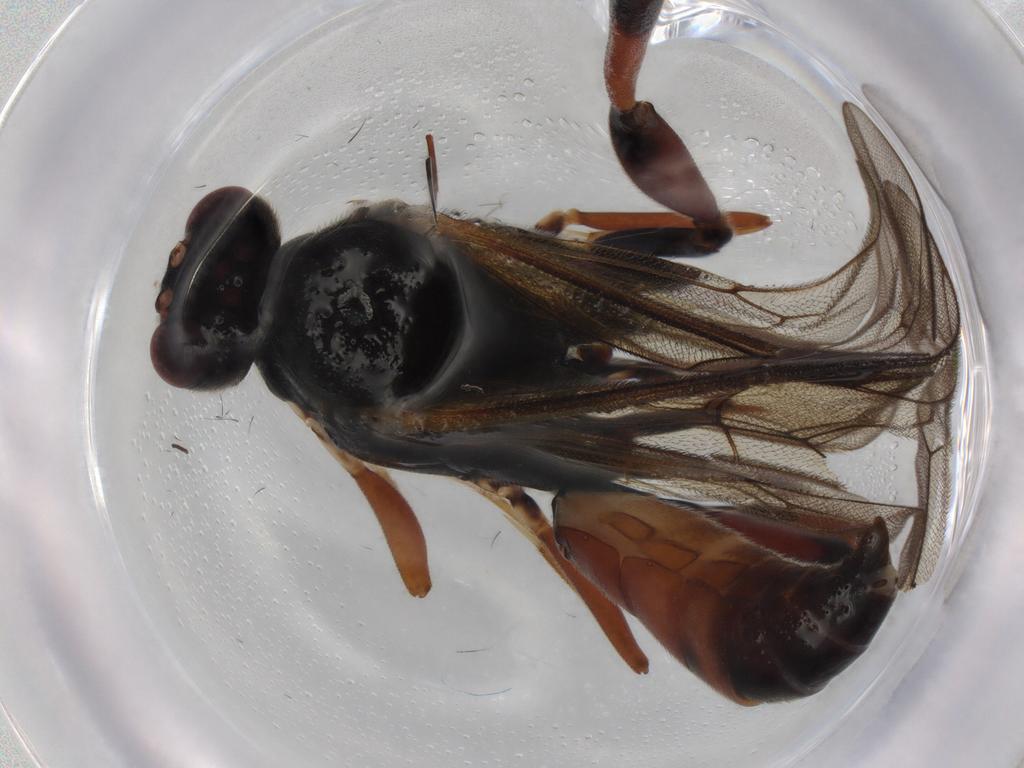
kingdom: Animalia
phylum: Arthropoda
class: Insecta
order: Hymenoptera
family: Ichneumonidae
